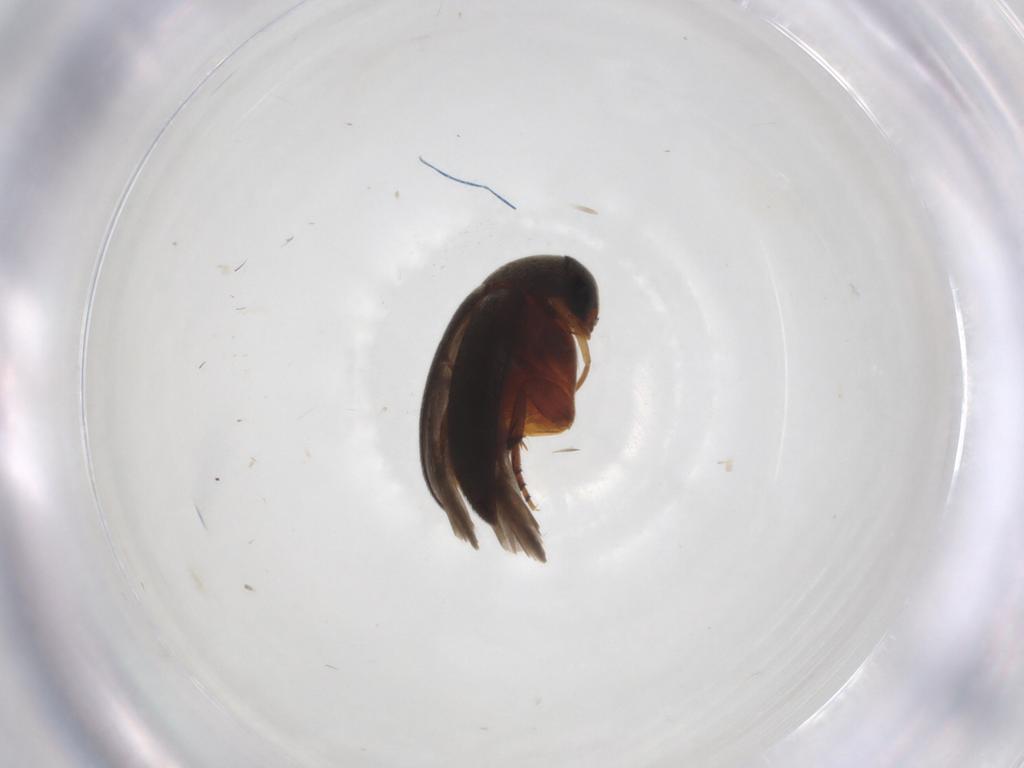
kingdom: Animalia
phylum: Arthropoda
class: Insecta
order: Coleoptera
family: Mordellidae
